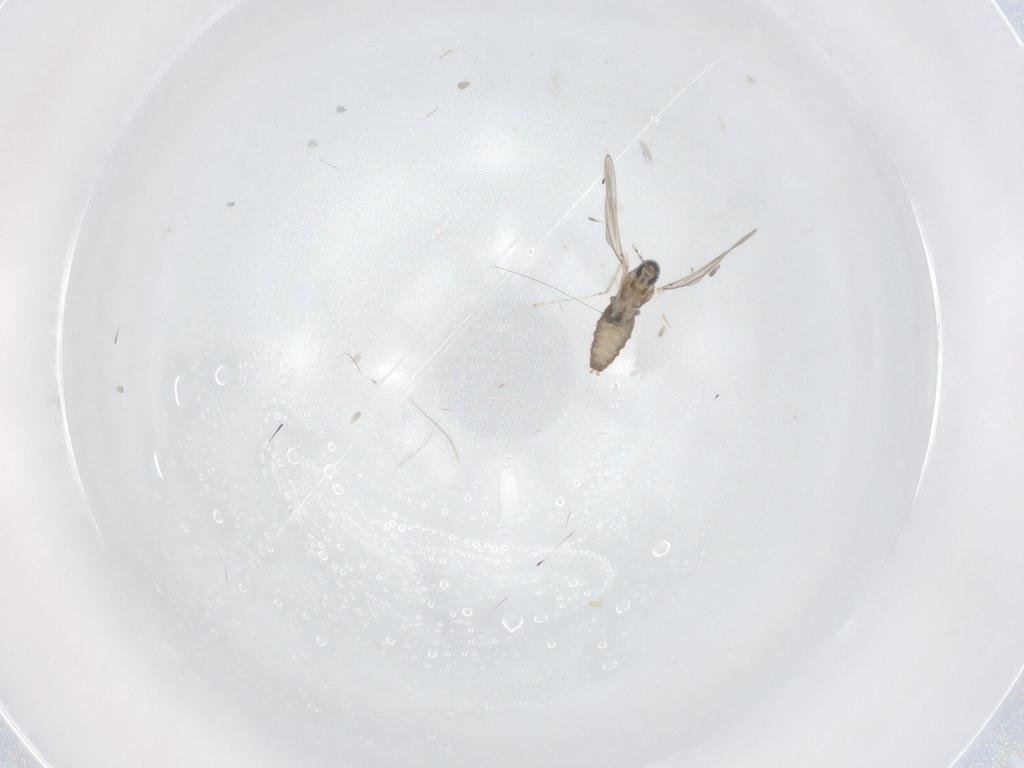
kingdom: Animalia
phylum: Arthropoda
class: Insecta
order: Diptera
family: Cecidomyiidae
